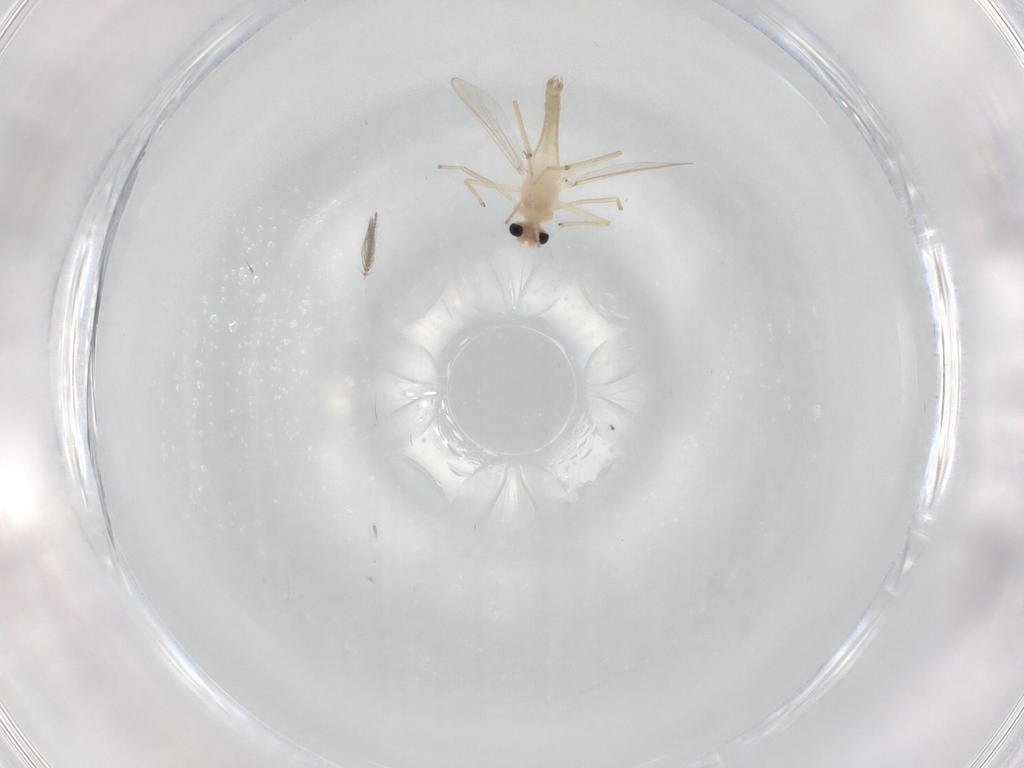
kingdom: Animalia
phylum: Arthropoda
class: Insecta
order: Diptera
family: Chironomidae
